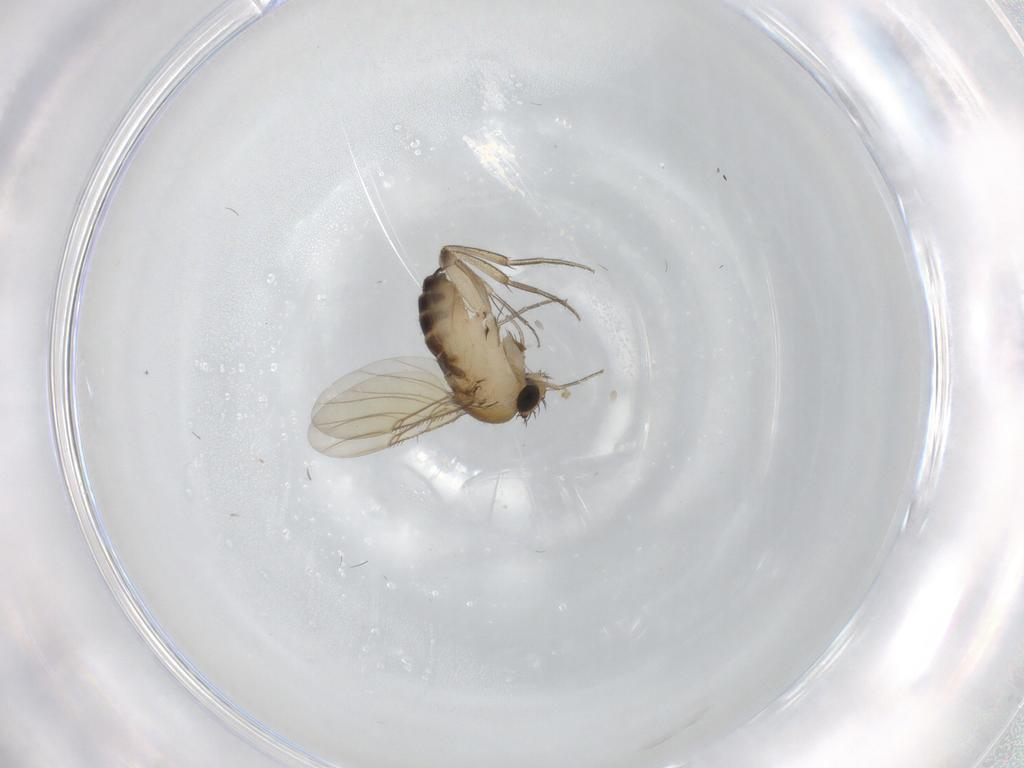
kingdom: Animalia
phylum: Arthropoda
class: Insecta
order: Diptera
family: Phoridae
